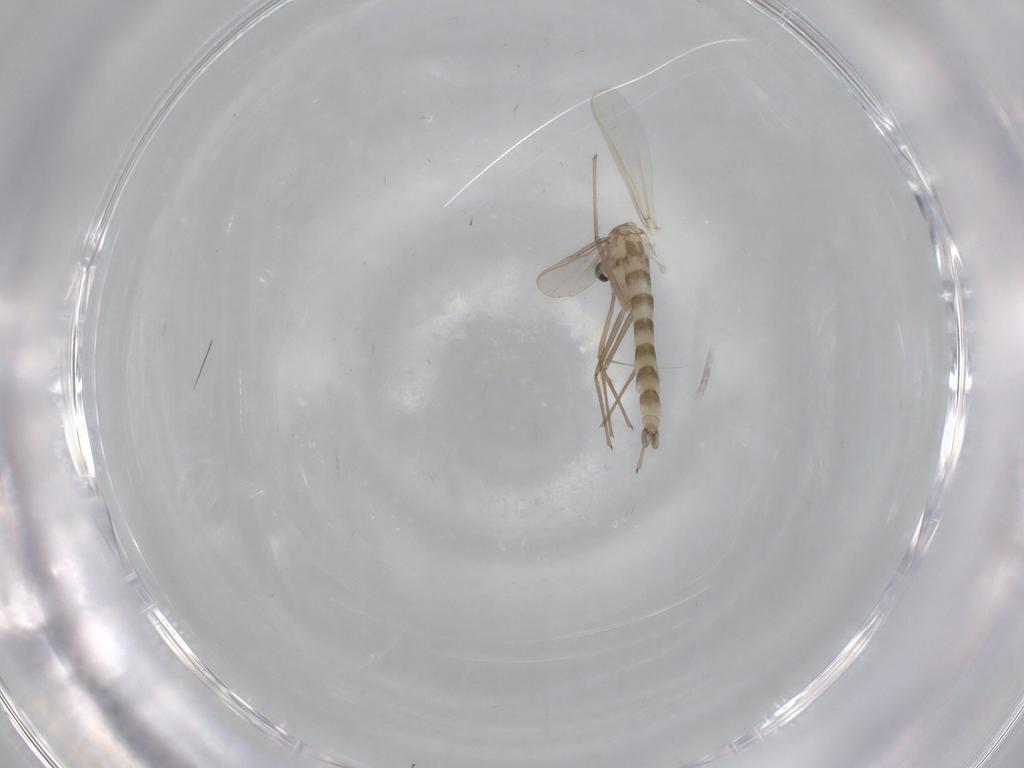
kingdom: Animalia
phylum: Arthropoda
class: Insecta
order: Diptera
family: Chironomidae
